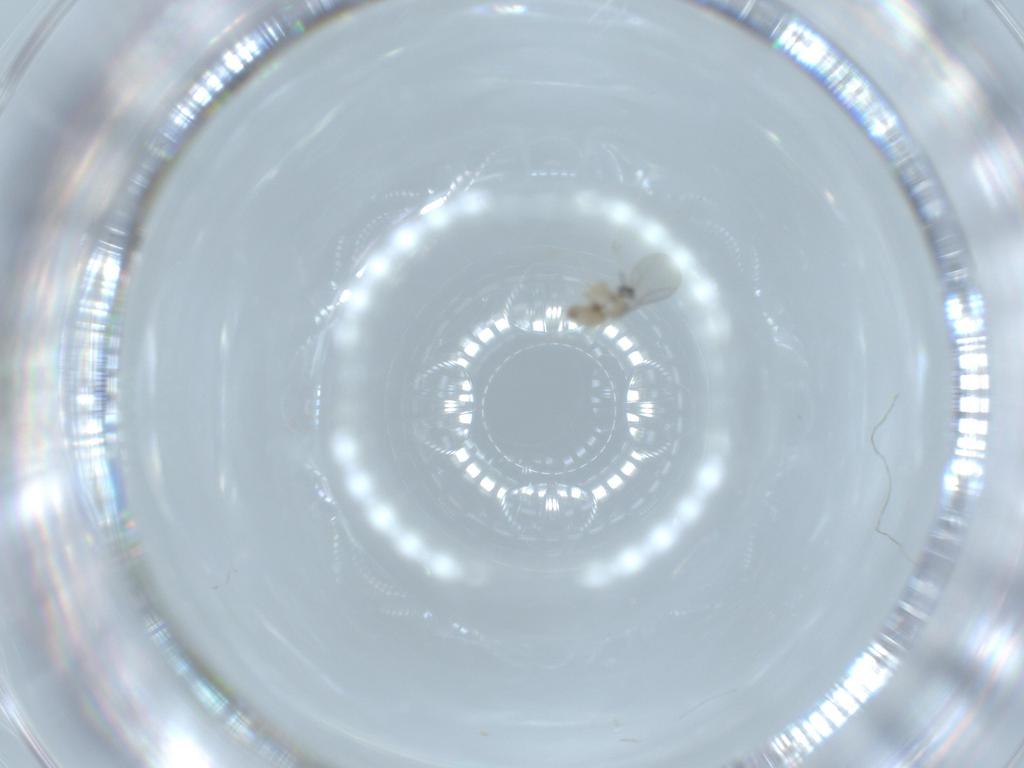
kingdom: Animalia
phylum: Arthropoda
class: Insecta
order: Diptera
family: Cecidomyiidae
